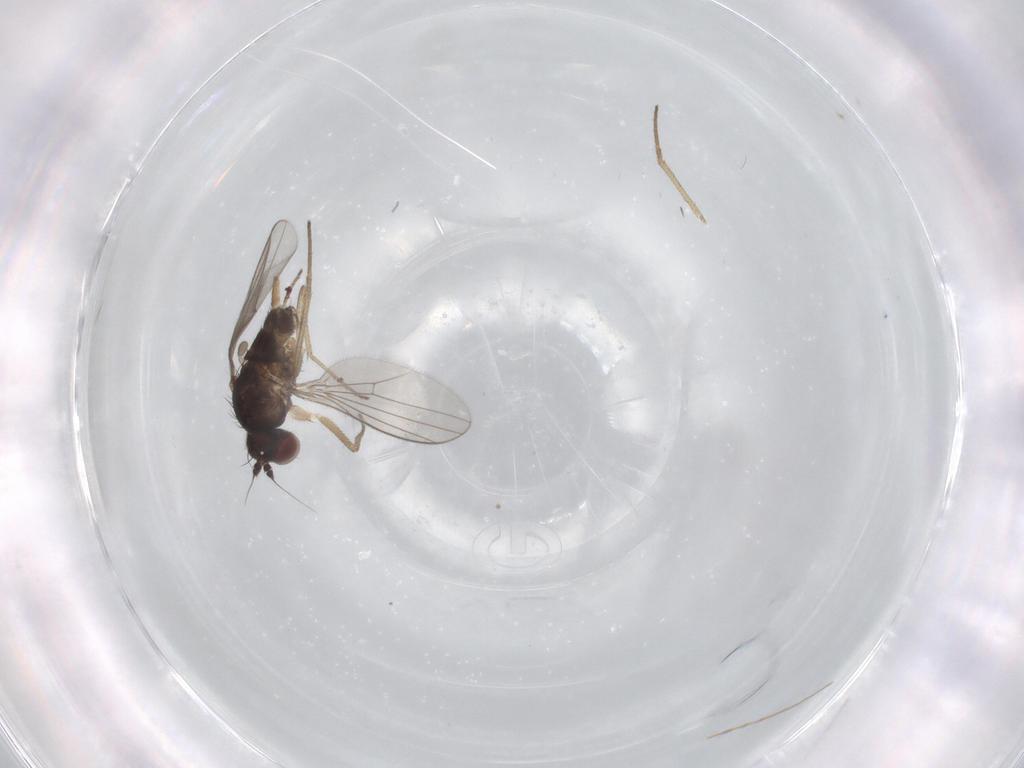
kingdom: Animalia
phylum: Arthropoda
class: Insecta
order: Diptera
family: Dolichopodidae
